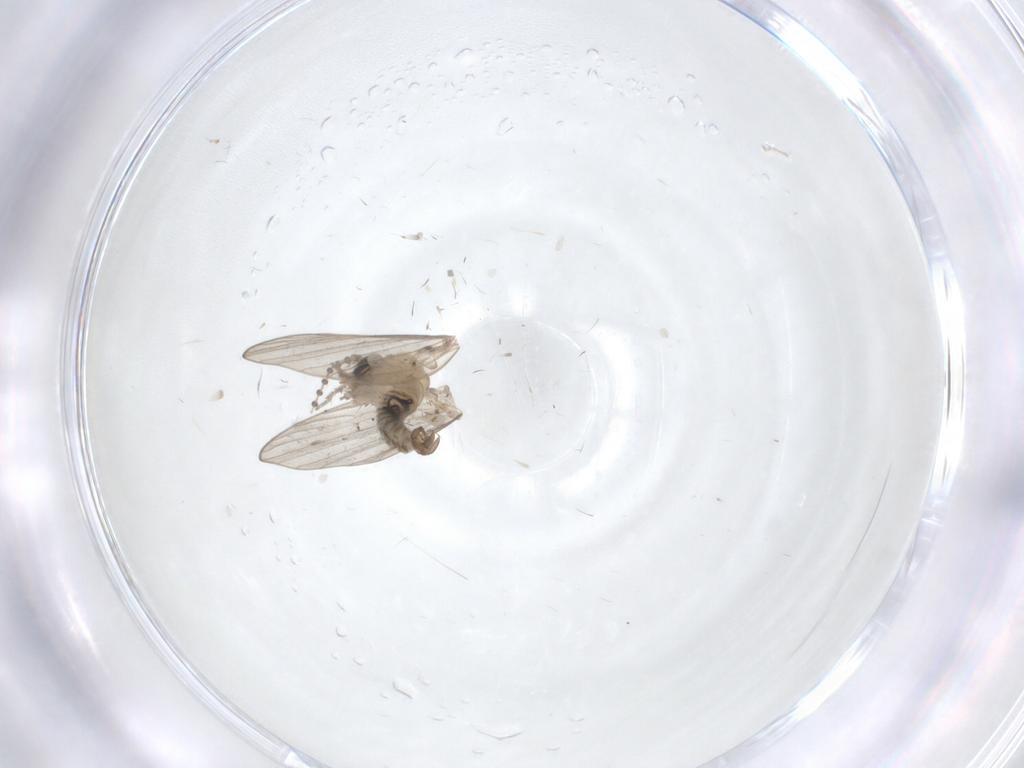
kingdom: Animalia
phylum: Arthropoda
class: Insecta
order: Diptera
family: Psychodidae
